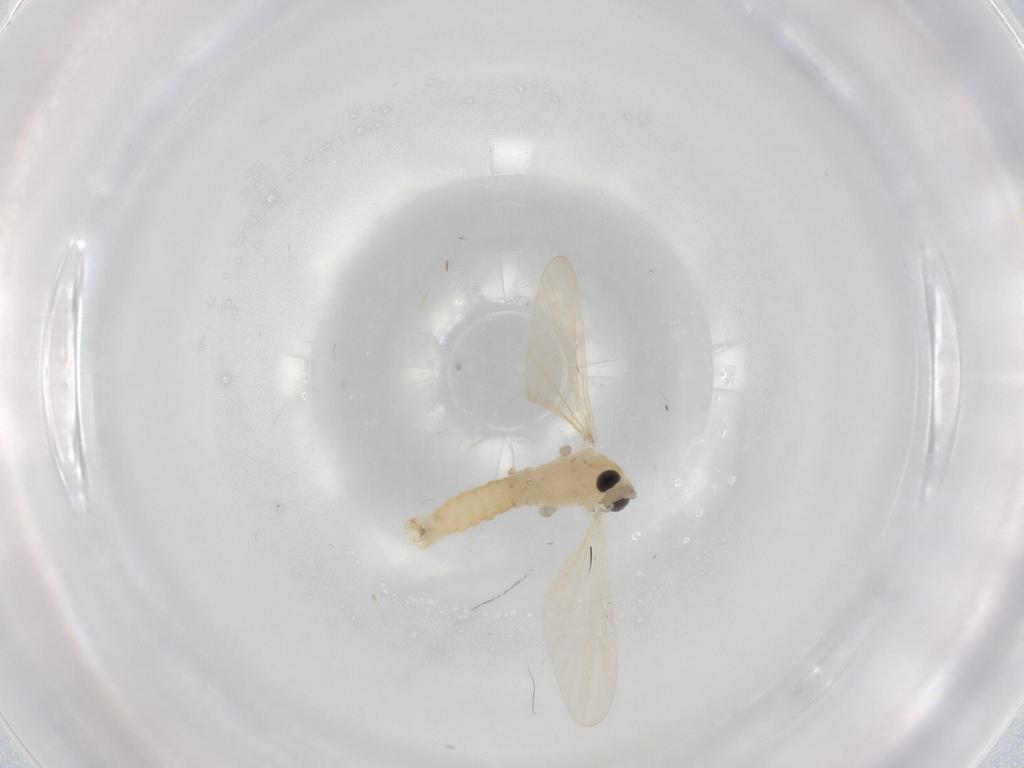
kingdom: Animalia
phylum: Arthropoda
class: Insecta
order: Diptera
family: Limoniidae
